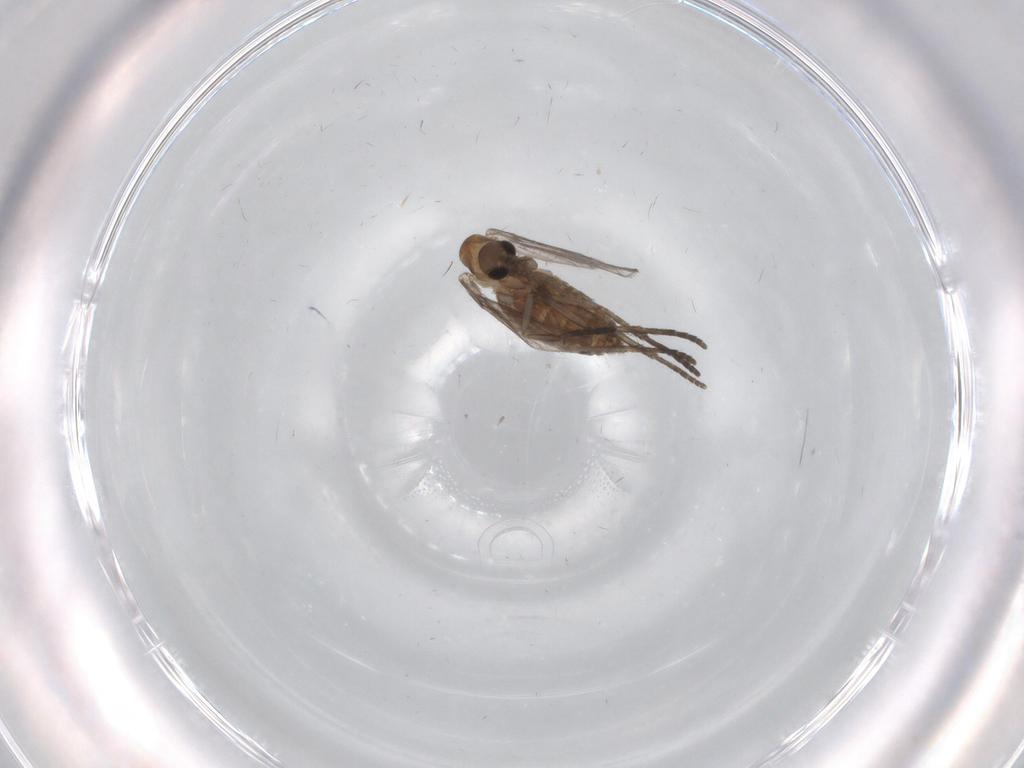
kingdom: Animalia
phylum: Arthropoda
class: Insecta
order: Diptera
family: Psychodidae
